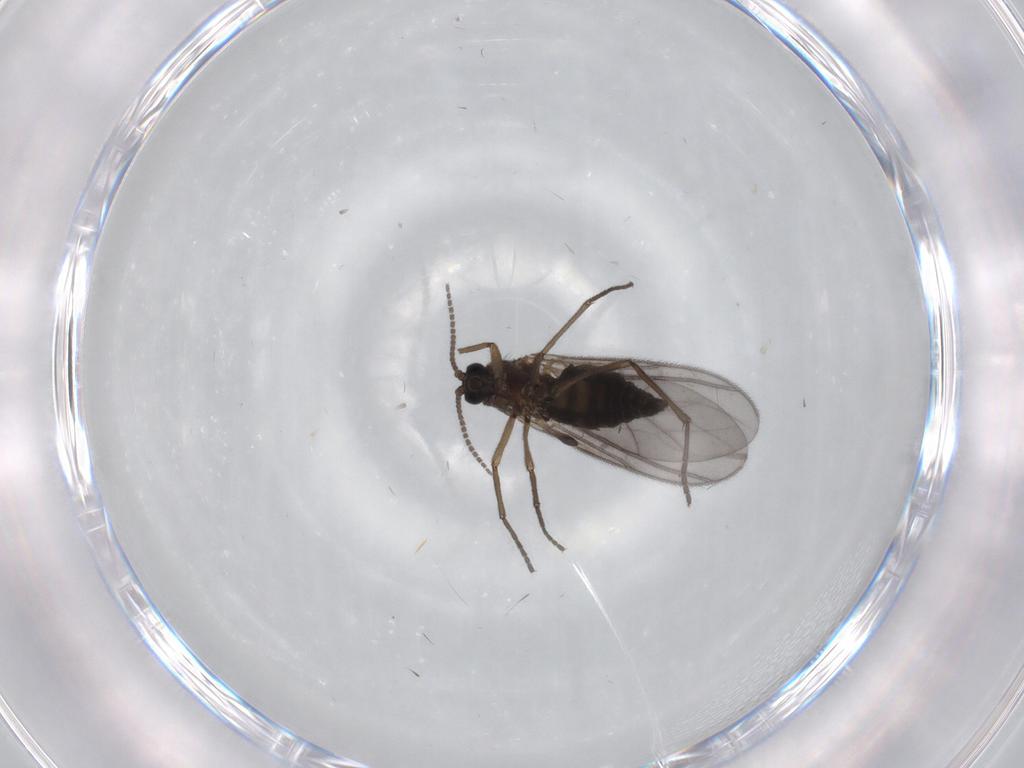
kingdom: Animalia
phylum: Arthropoda
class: Insecta
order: Diptera
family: Sciaridae
